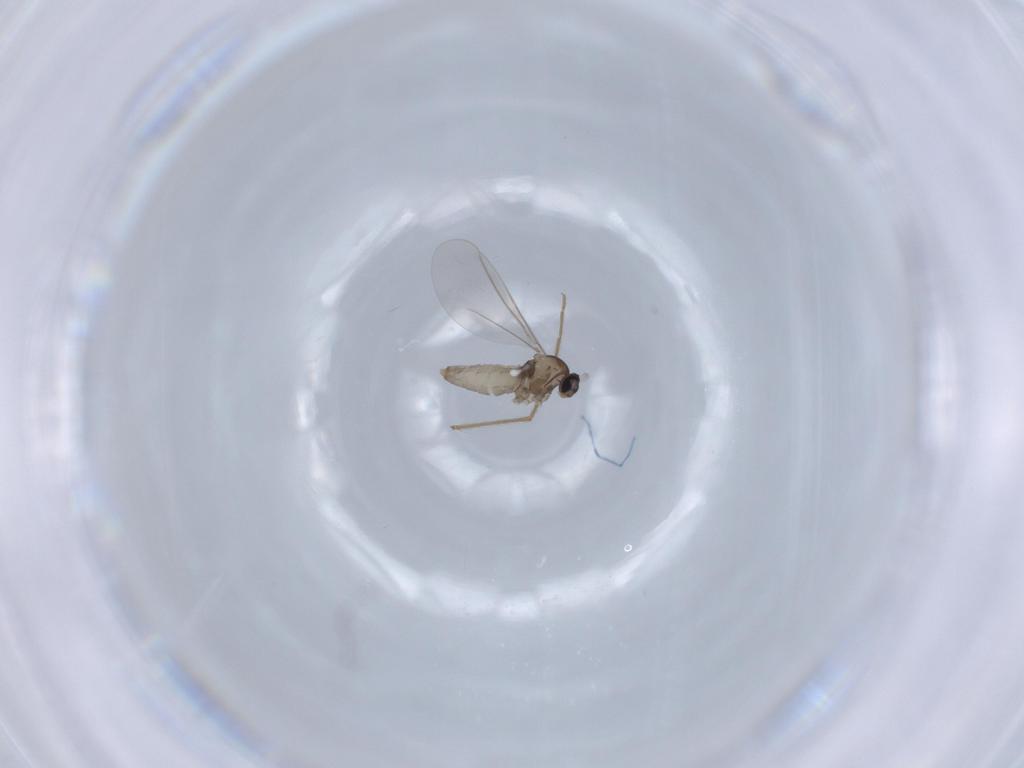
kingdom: Animalia
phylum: Arthropoda
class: Insecta
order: Diptera
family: Cecidomyiidae
